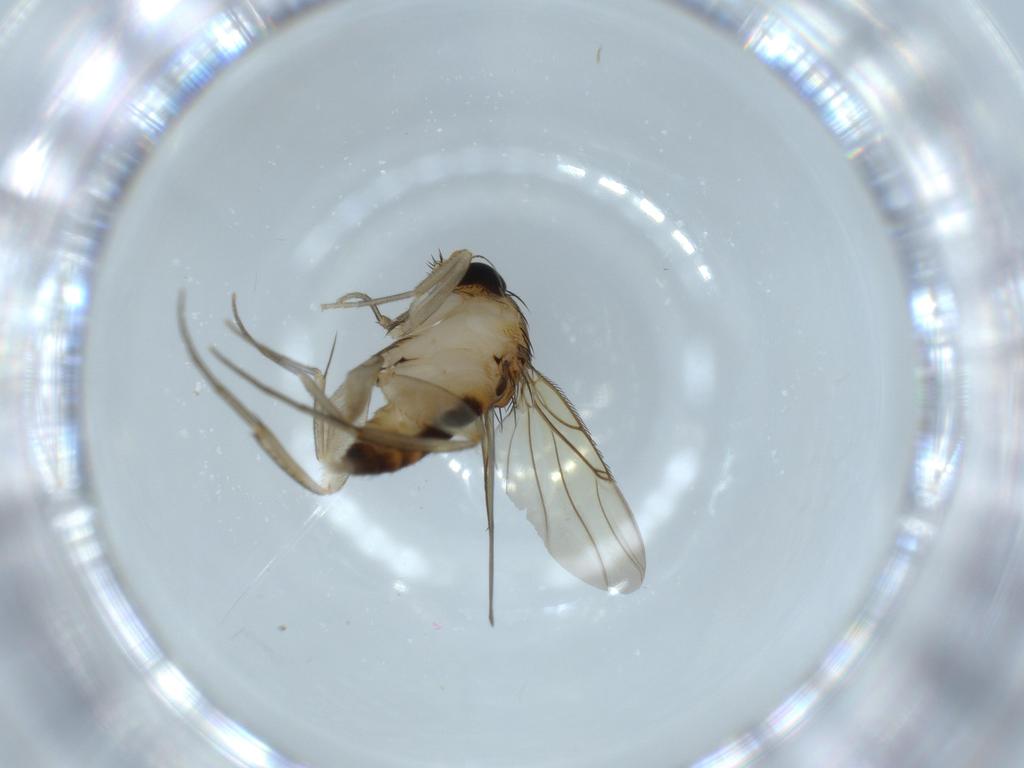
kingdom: Animalia
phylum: Arthropoda
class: Insecta
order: Diptera
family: Phoridae
